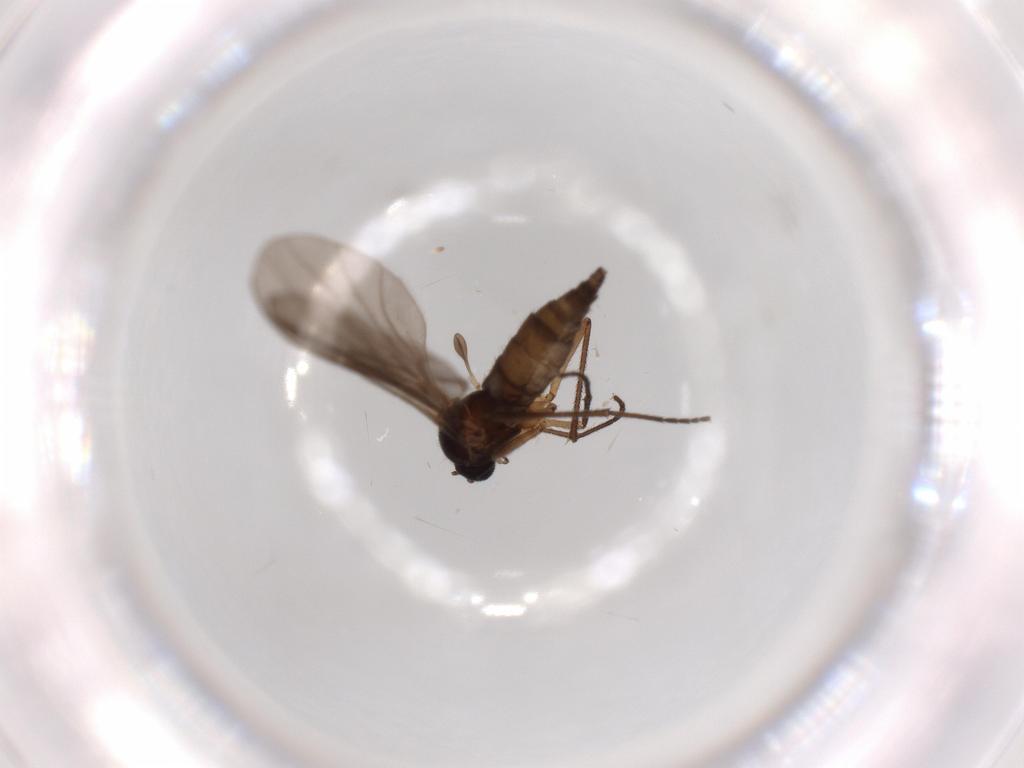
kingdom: Animalia
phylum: Arthropoda
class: Insecta
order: Diptera
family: Sciaridae
